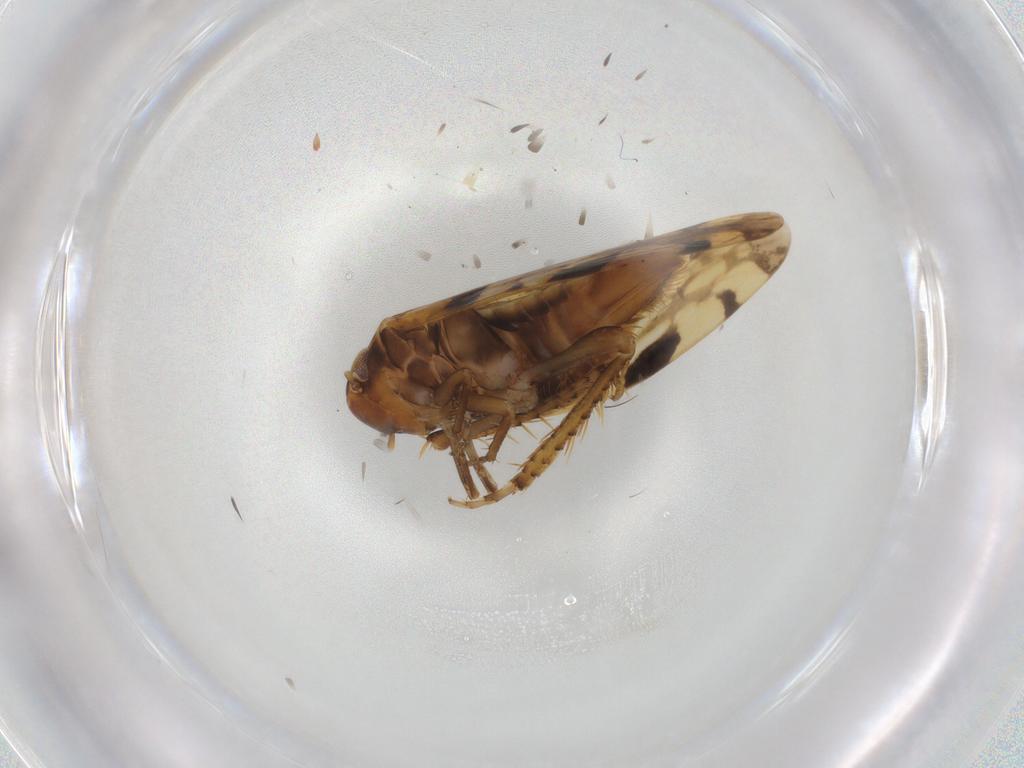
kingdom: Animalia
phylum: Arthropoda
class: Insecta
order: Hemiptera
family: Cicadellidae
